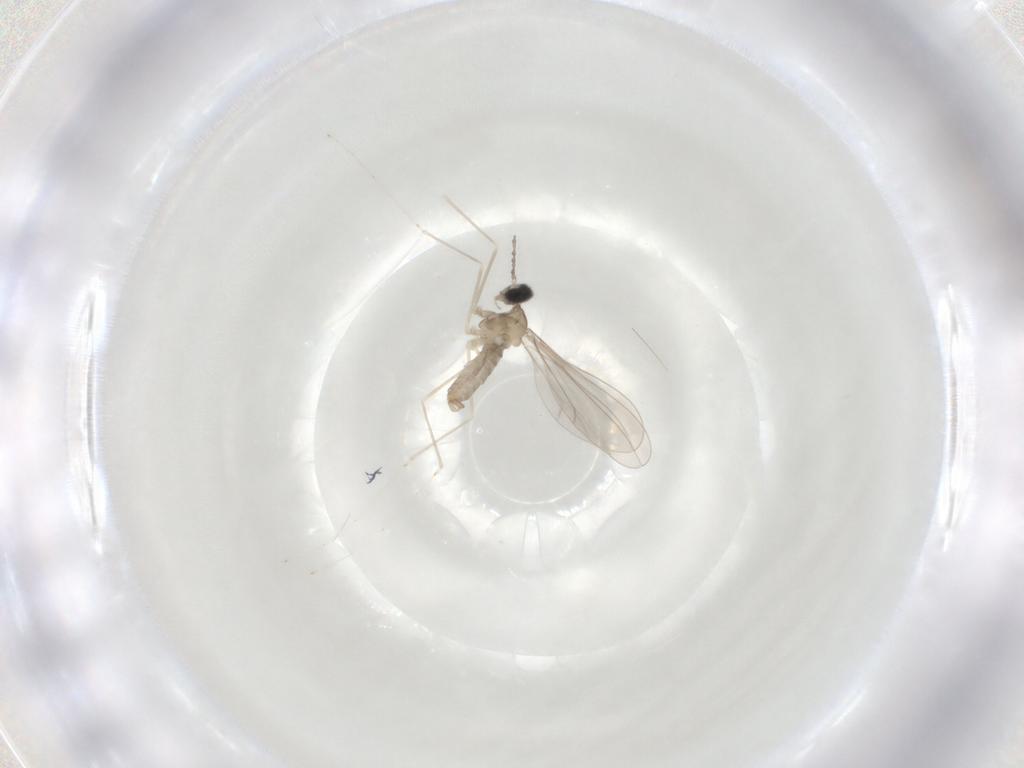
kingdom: Animalia
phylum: Arthropoda
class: Insecta
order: Diptera
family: Cecidomyiidae
